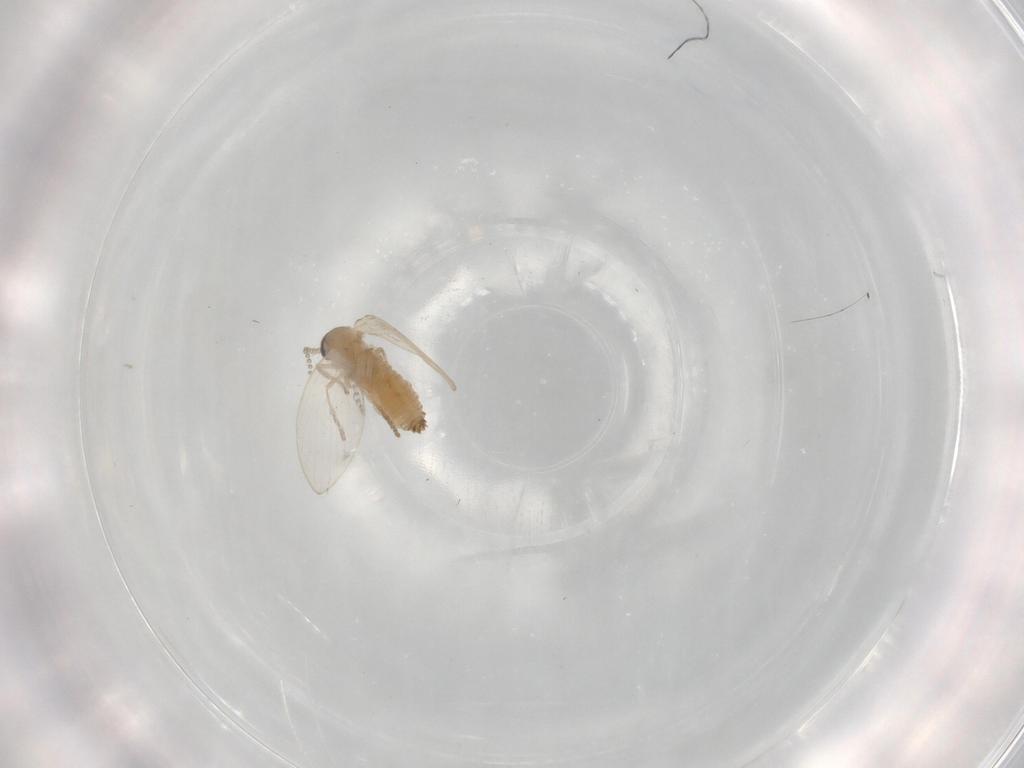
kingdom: Animalia
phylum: Arthropoda
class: Insecta
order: Diptera
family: Psychodidae
